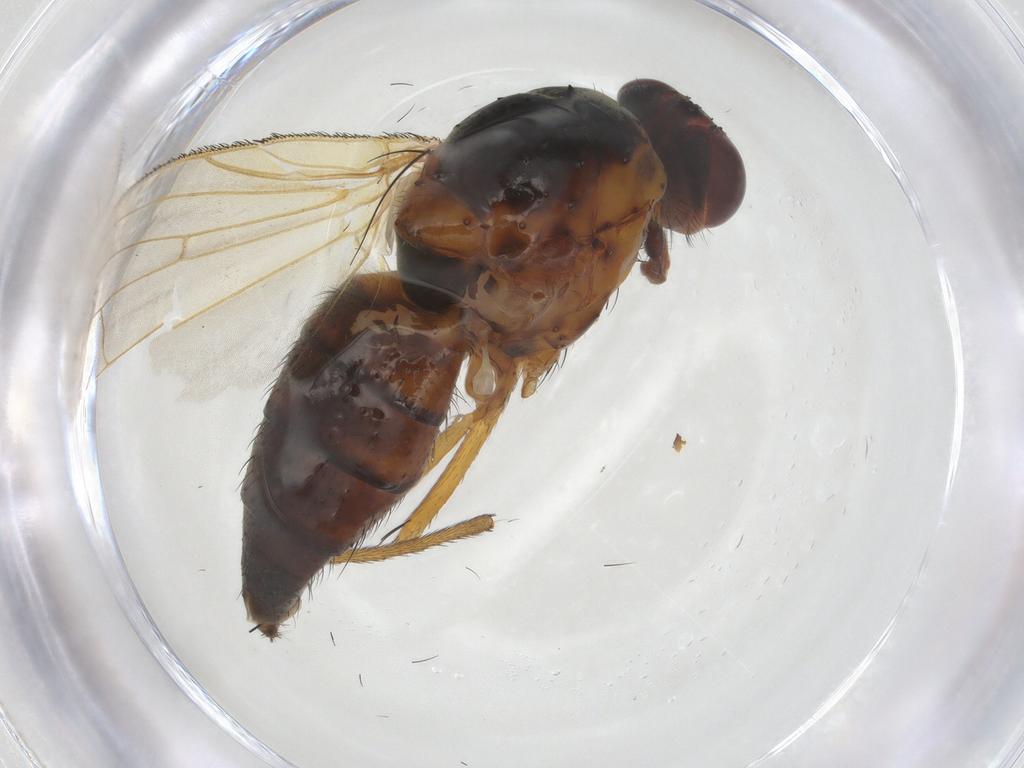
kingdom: Animalia
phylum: Arthropoda
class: Insecta
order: Diptera
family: Anthomyiidae
